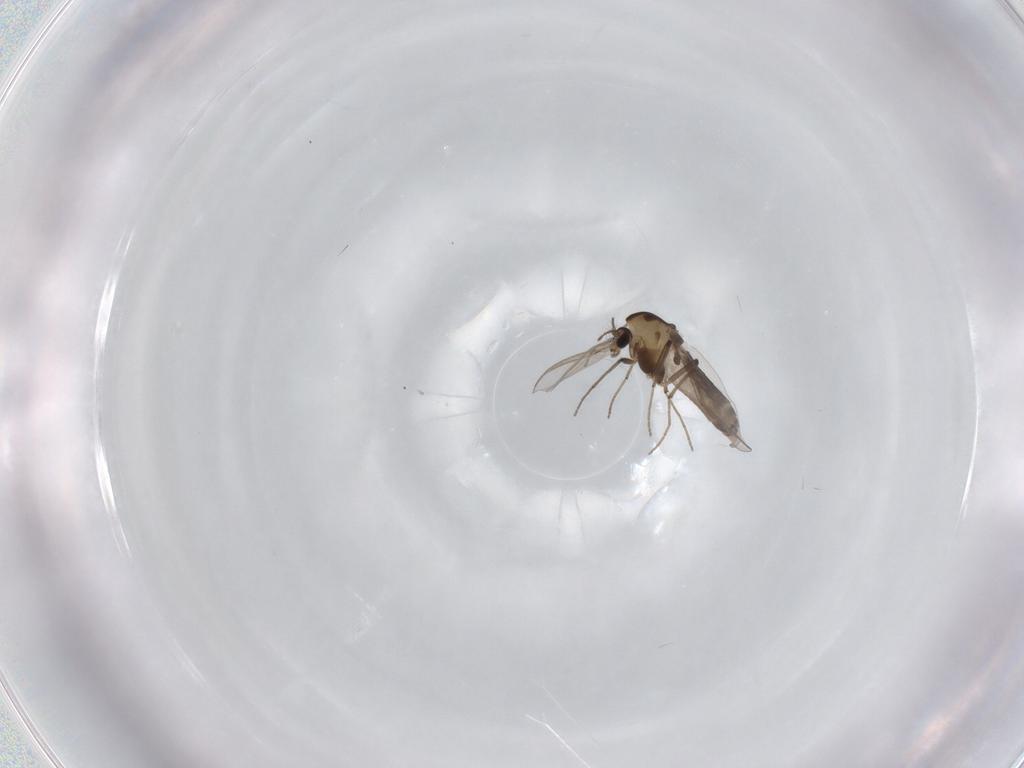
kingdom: Animalia
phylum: Arthropoda
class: Insecta
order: Diptera
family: Chironomidae
